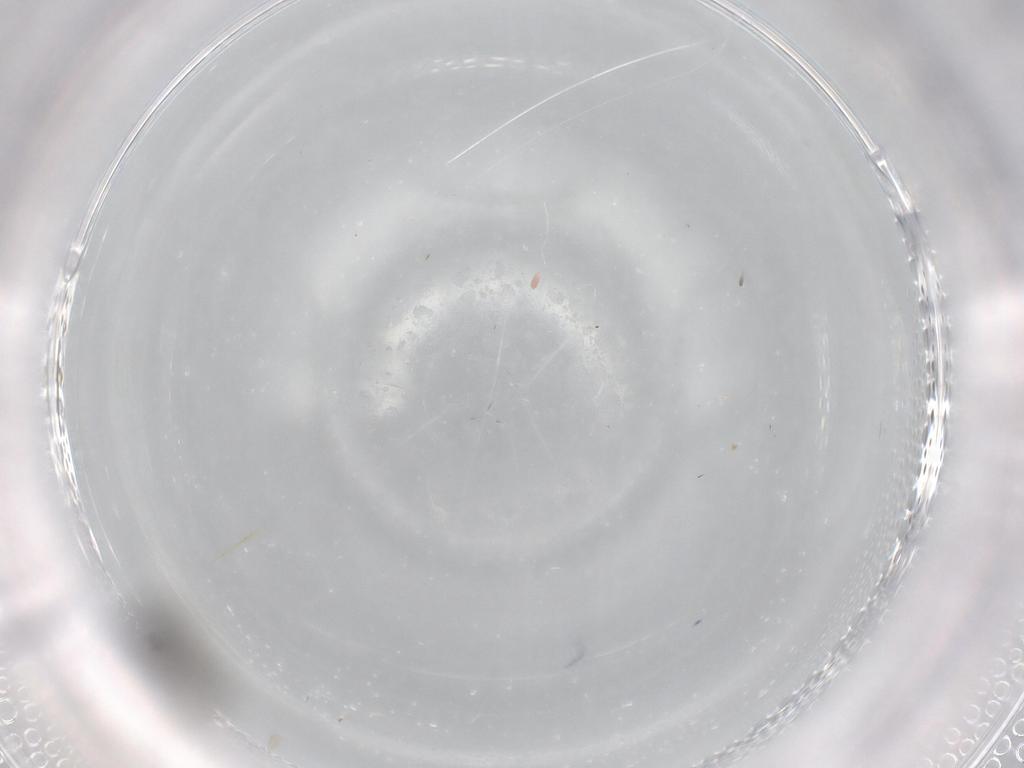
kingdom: Animalia
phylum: Arthropoda
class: Insecta
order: Diptera
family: Phoridae
